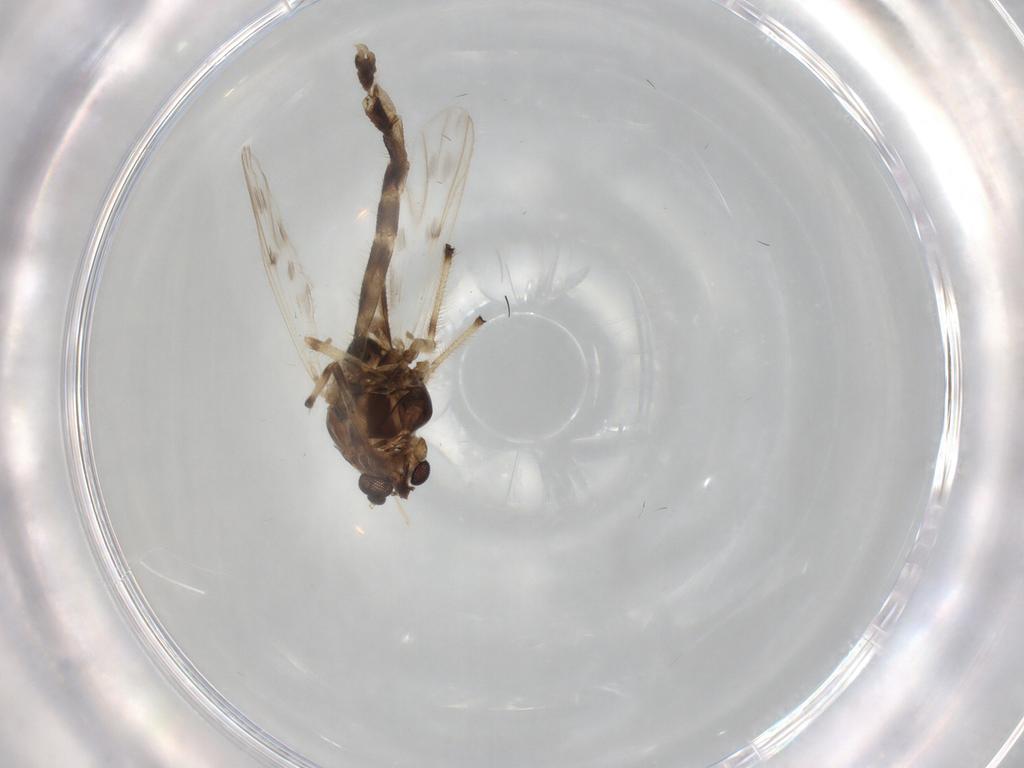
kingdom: Animalia
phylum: Arthropoda
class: Insecta
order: Diptera
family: Chironomidae
